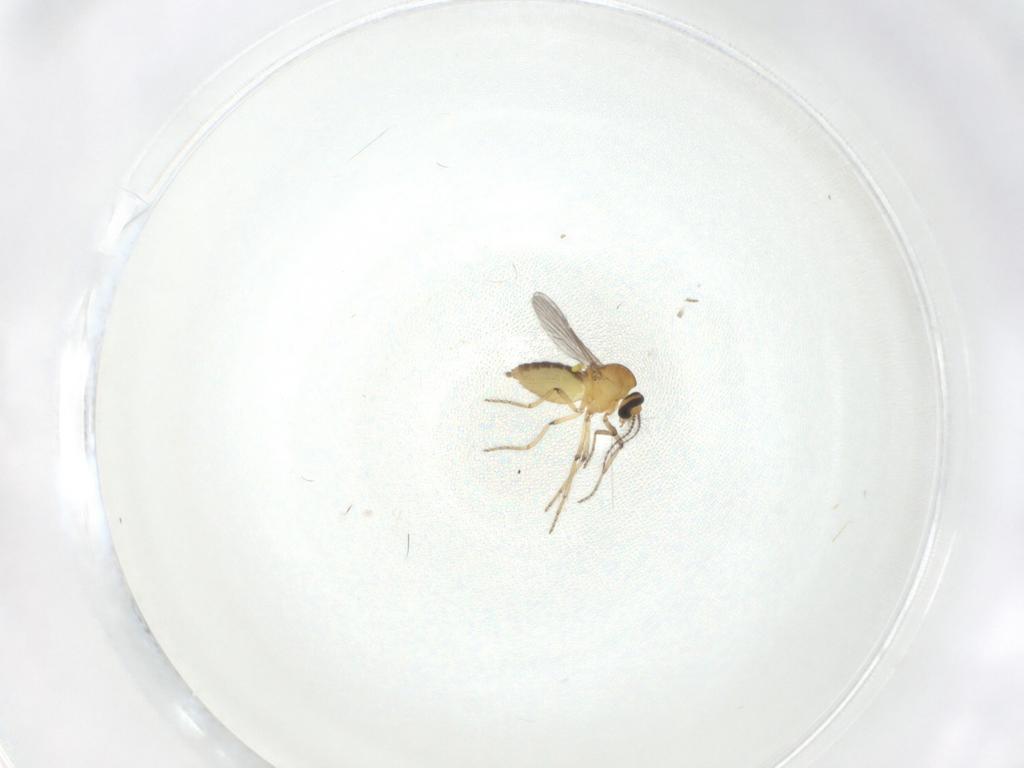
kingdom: Animalia
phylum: Arthropoda
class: Insecta
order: Diptera
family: Ceratopogonidae
